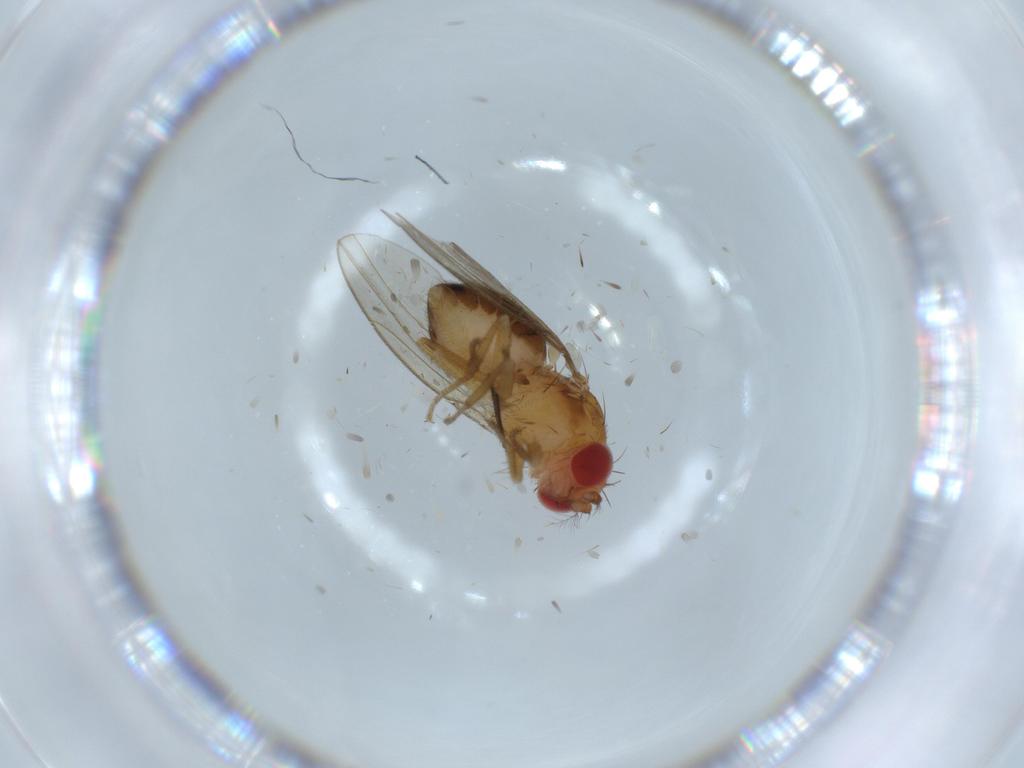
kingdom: Animalia
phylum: Arthropoda
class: Insecta
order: Diptera
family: Drosophilidae
